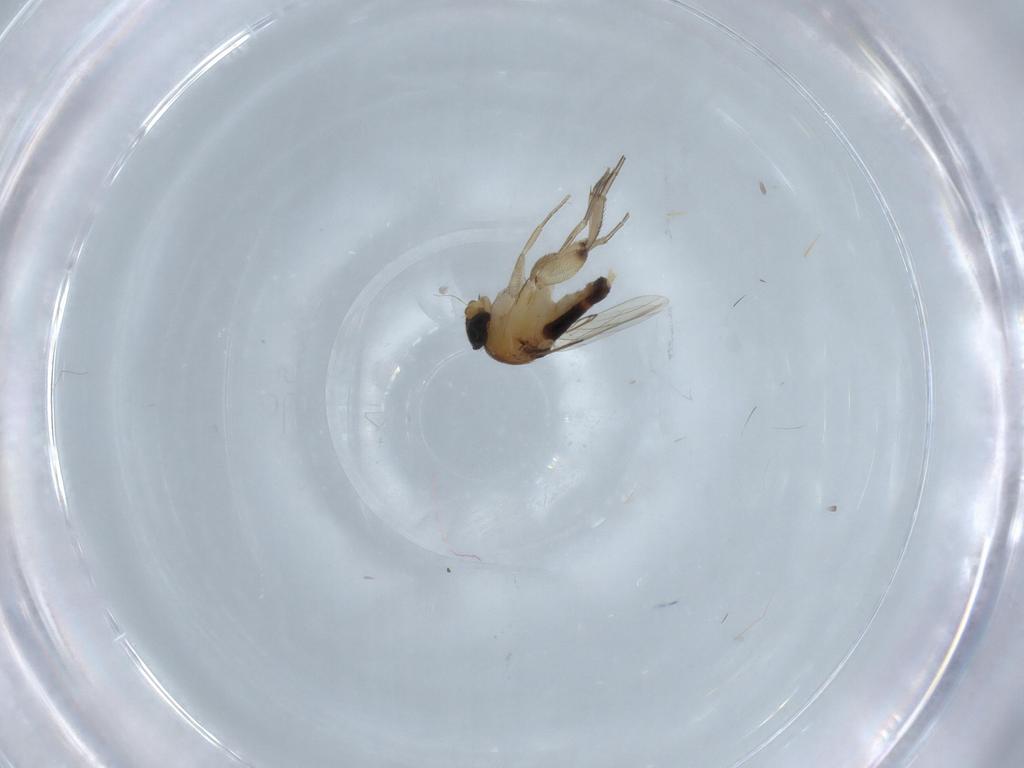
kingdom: Animalia
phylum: Arthropoda
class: Insecta
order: Diptera
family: Phoridae
